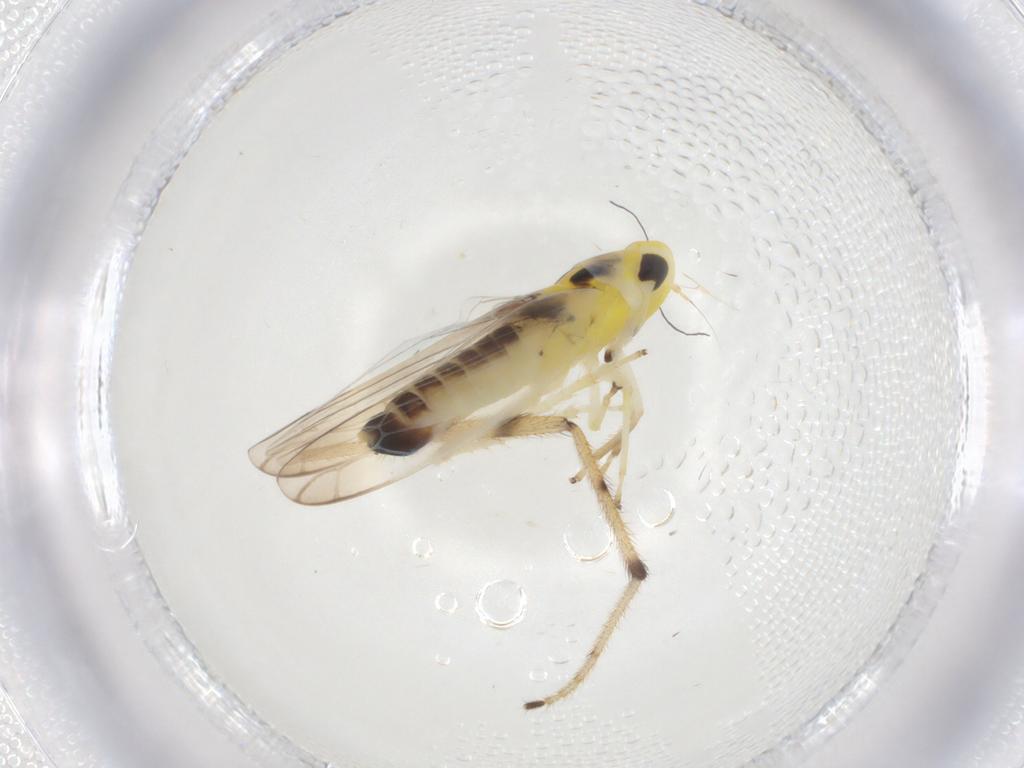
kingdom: Animalia
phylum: Arthropoda
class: Insecta
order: Hemiptera
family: Cicadellidae
